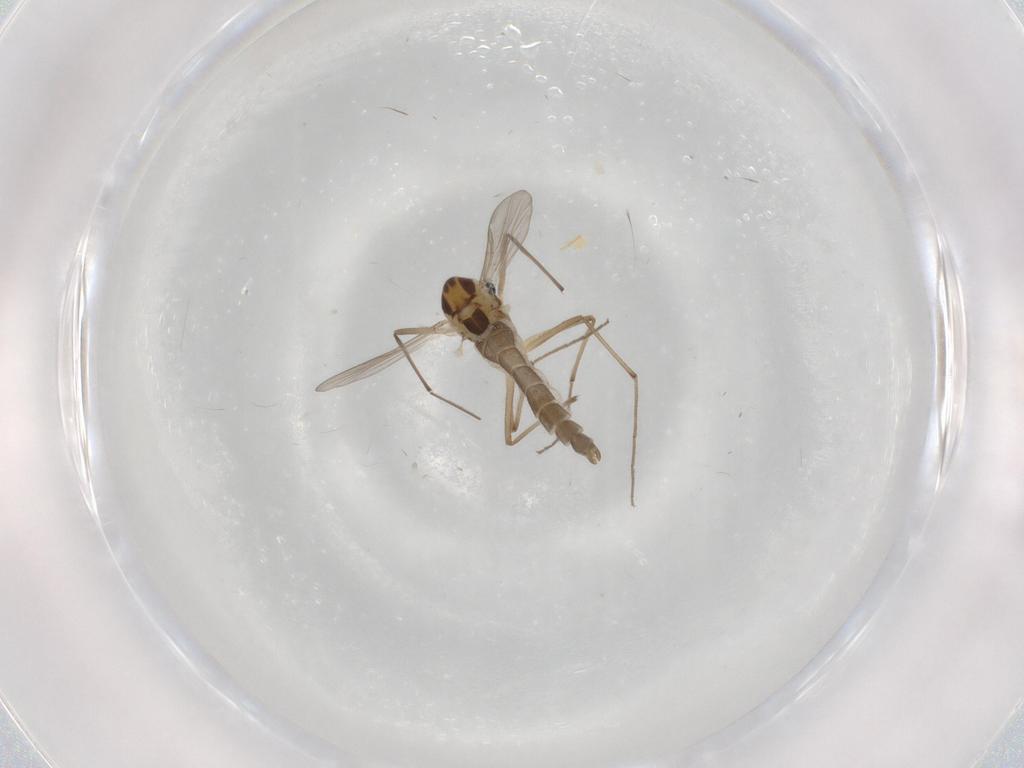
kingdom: Animalia
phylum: Arthropoda
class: Insecta
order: Diptera
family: Chironomidae
